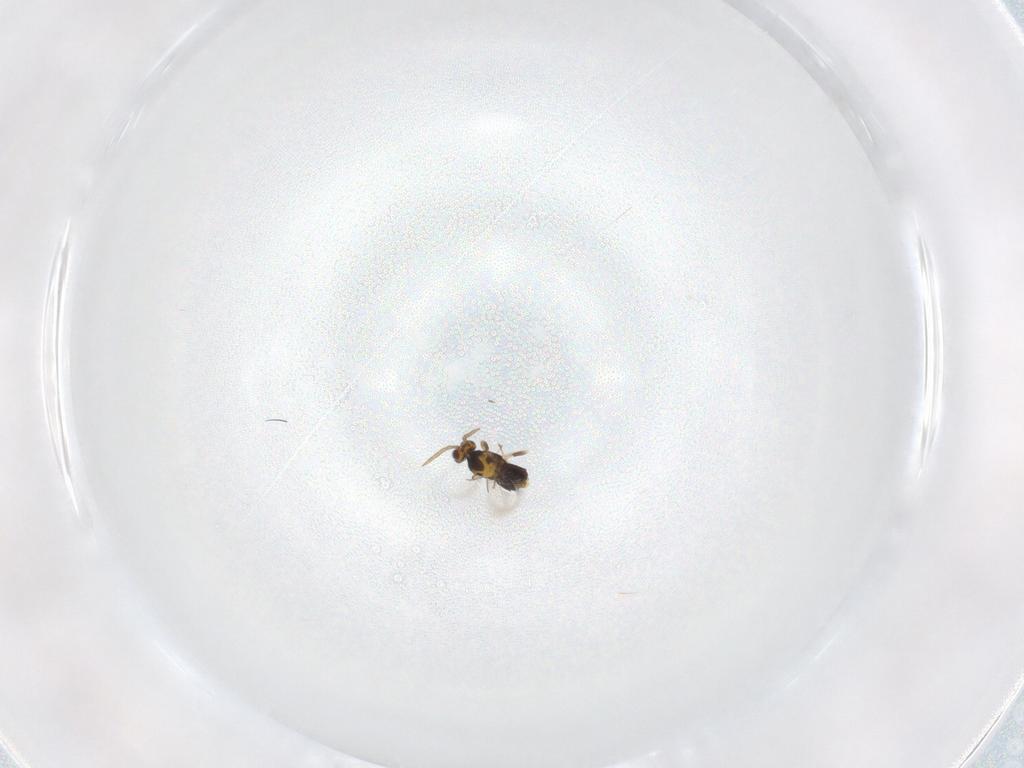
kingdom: Animalia
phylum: Arthropoda
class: Insecta
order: Hymenoptera
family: Aphelinidae
